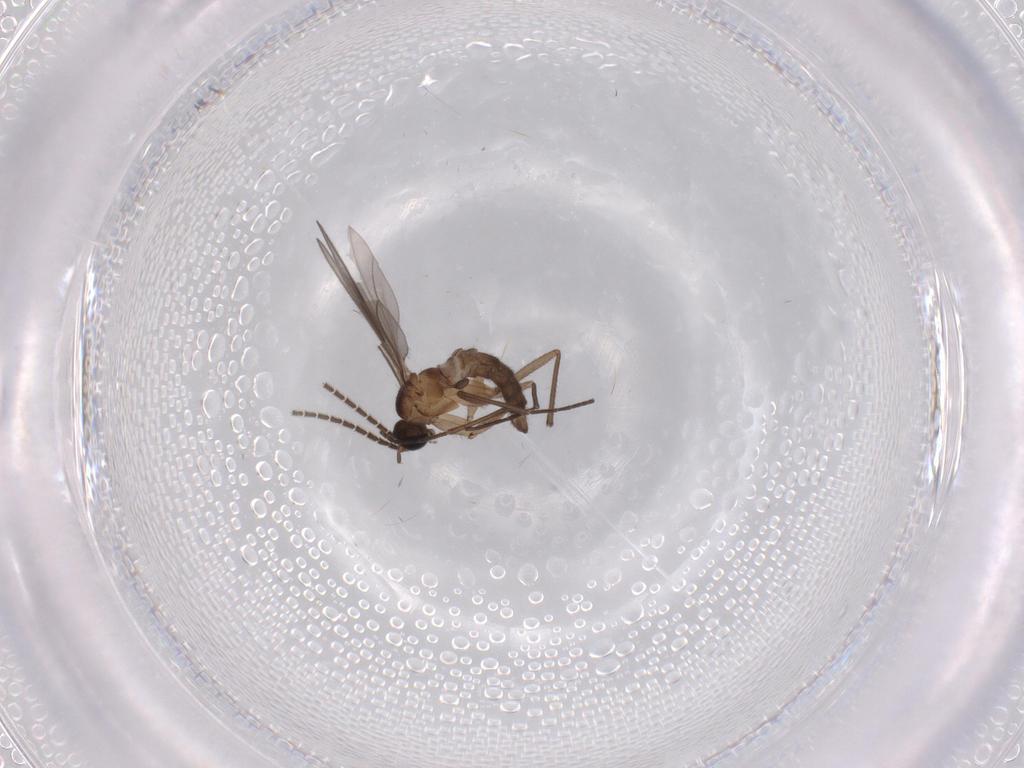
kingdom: Animalia
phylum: Arthropoda
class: Insecta
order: Diptera
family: Sciaridae
